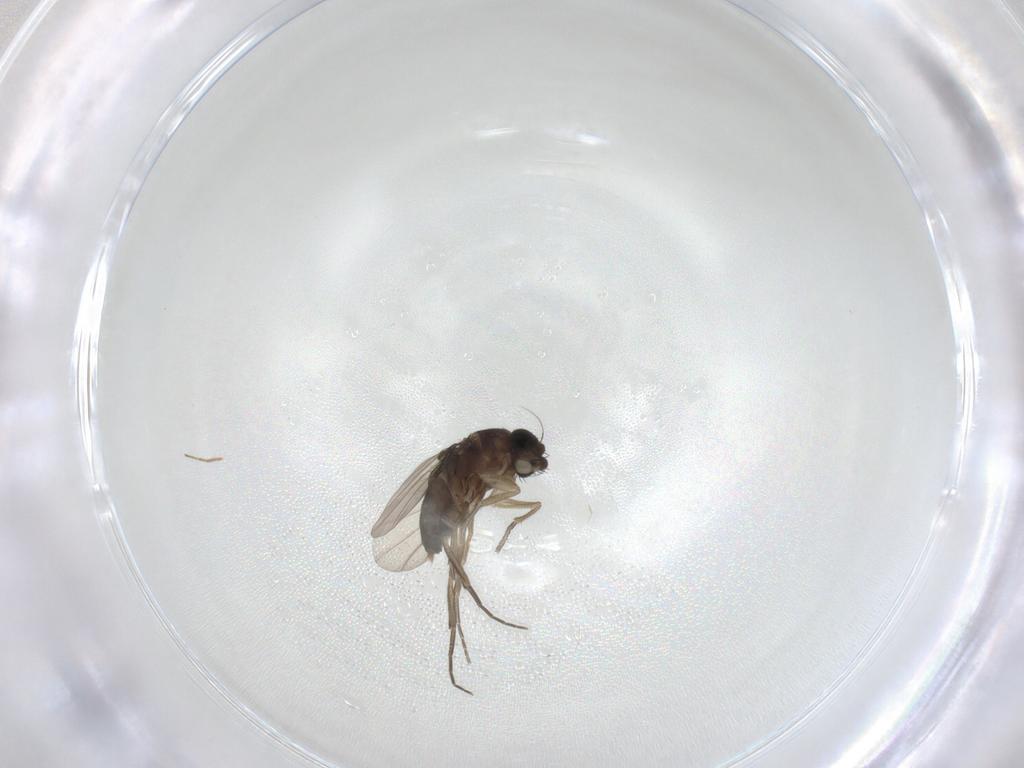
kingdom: Animalia
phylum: Arthropoda
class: Insecta
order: Diptera
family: Phoridae
